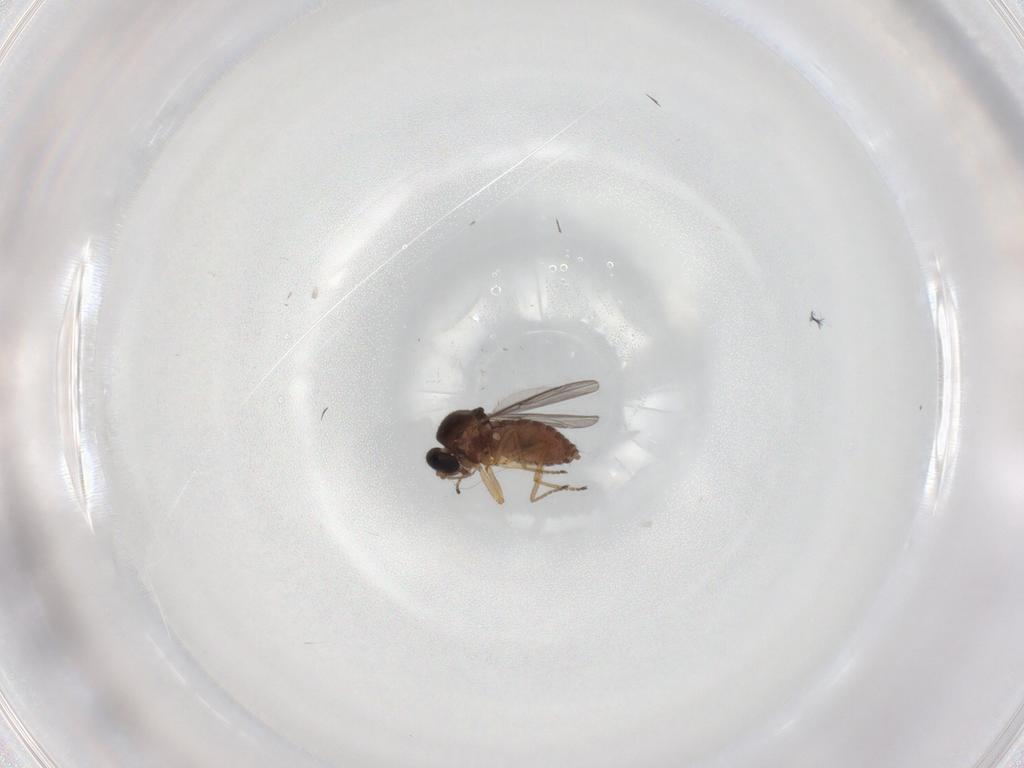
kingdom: Animalia
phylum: Arthropoda
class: Insecta
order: Diptera
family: Ceratopogonidae
